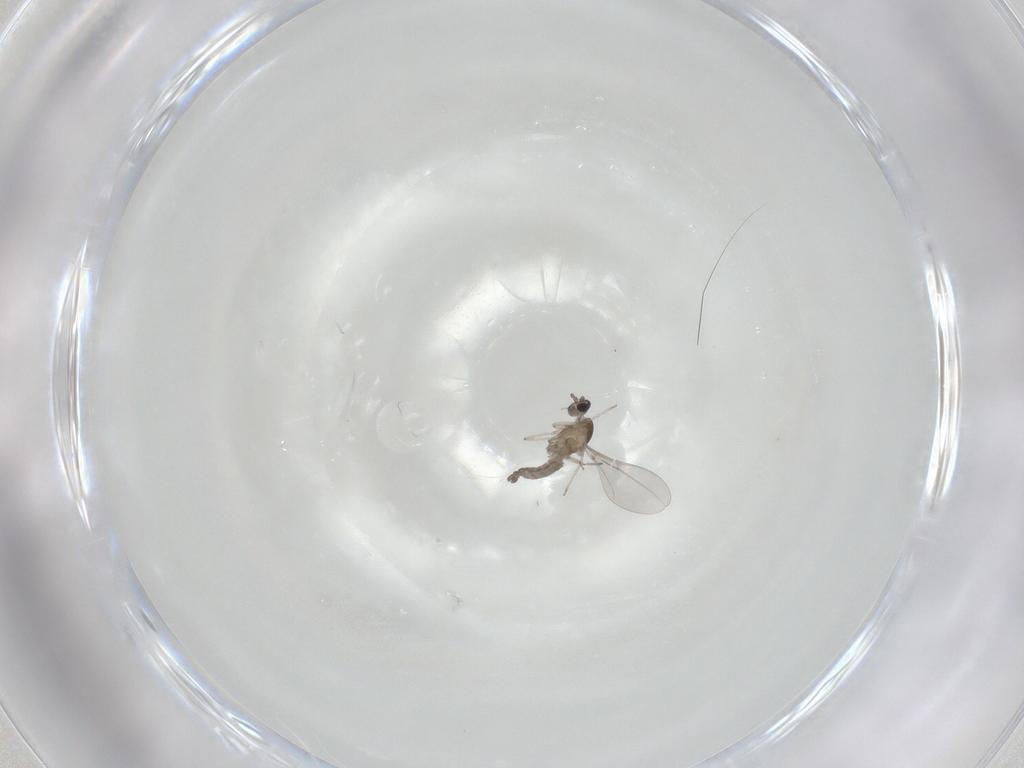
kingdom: Animalia
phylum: Arthropoda
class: Insecta
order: Diptera
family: Cecidomyiidae
